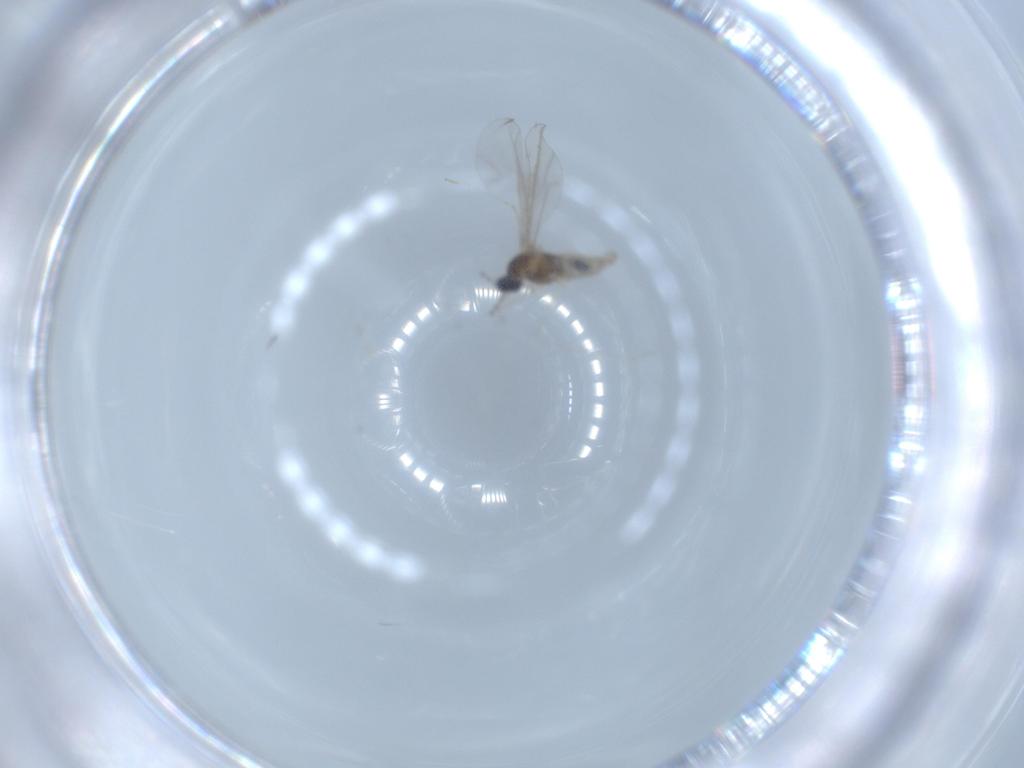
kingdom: Animalia
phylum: Arthropoda
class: Insecta
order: Diptera
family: Cecidomyiidae
